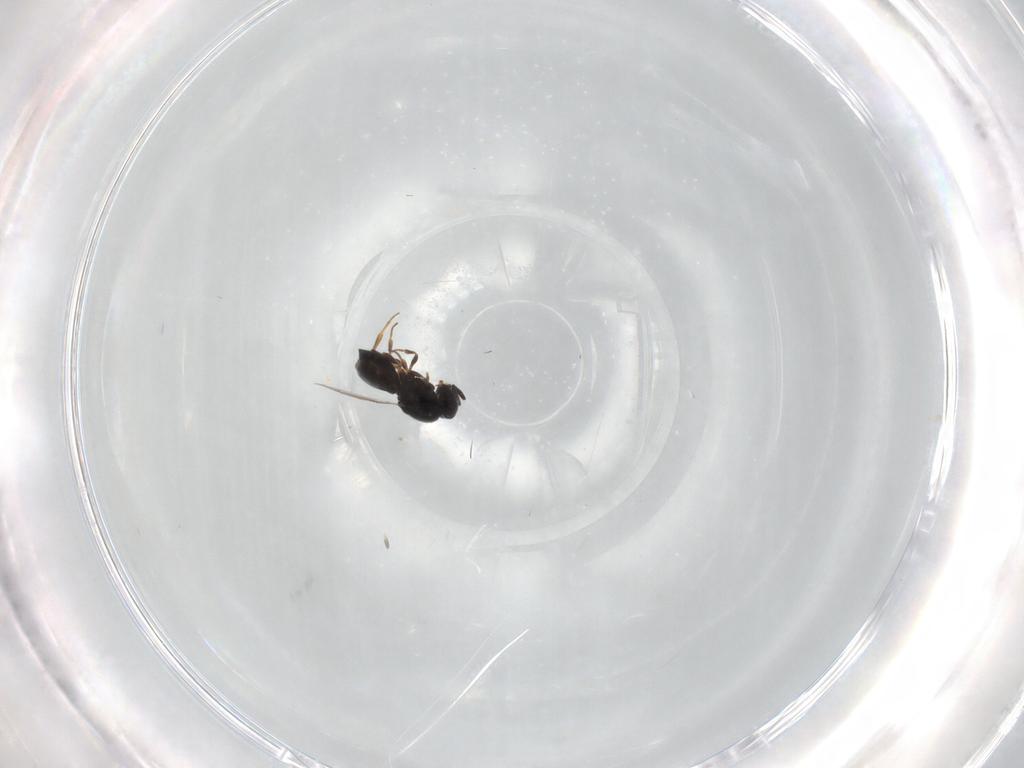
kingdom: Animalia
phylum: Arthropoda
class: Insecta
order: Hymenoptera
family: Scelionidae
